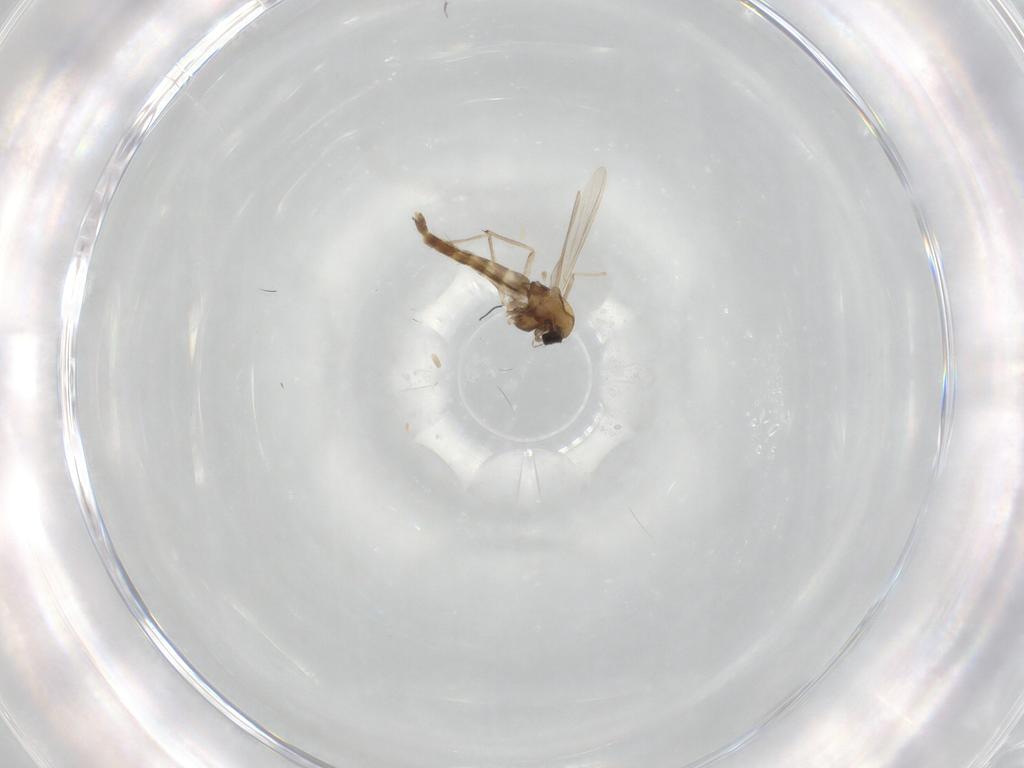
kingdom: Animalia
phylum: Arthropoda
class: Insecta
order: Diptera
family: Chironomidae
